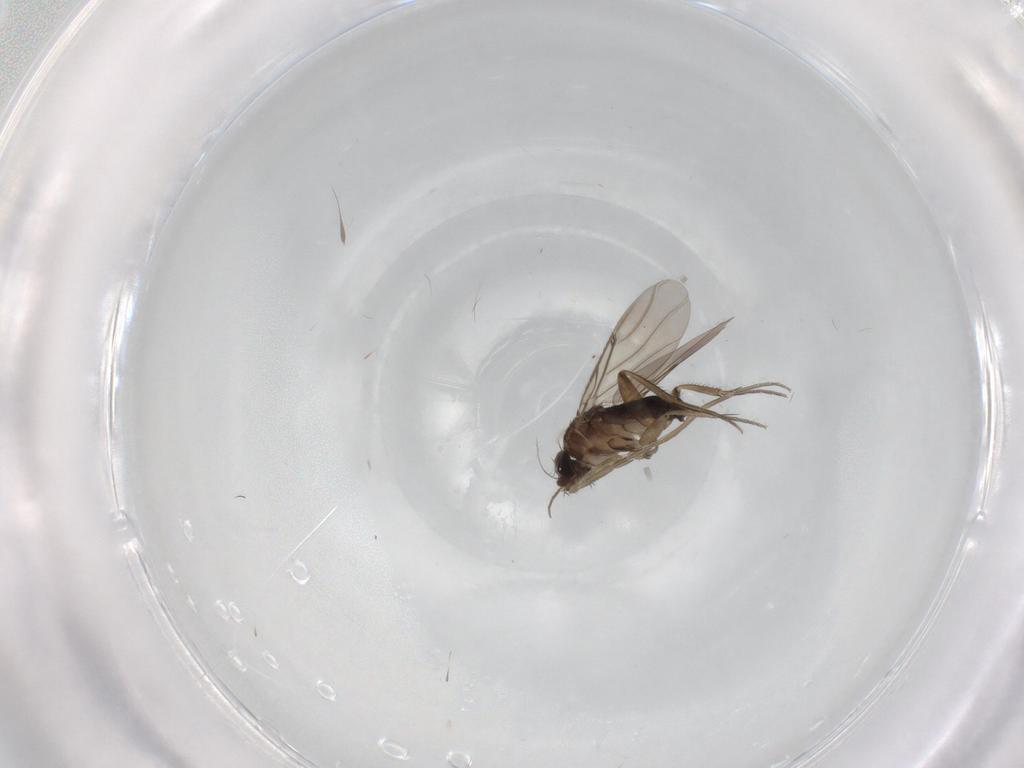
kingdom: Animalia
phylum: Arthropoda
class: Insecta
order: Diptera
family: Phoridae
